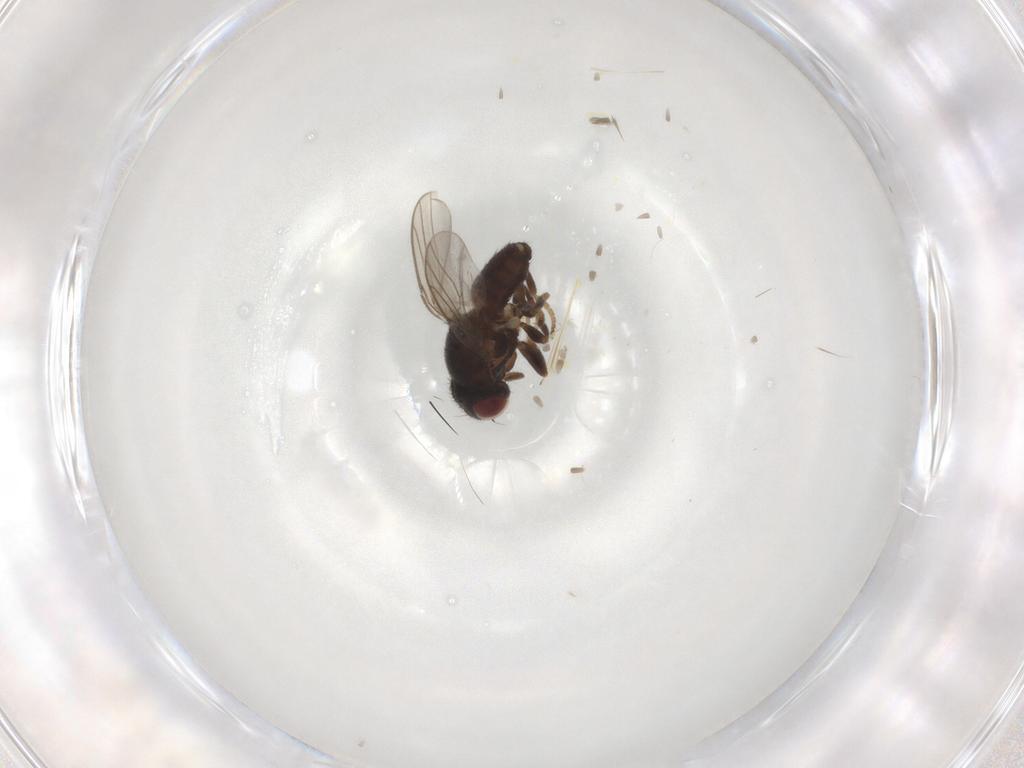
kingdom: Animalia
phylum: Arthropoda
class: Insecta
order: Diptera
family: Chloropidae
